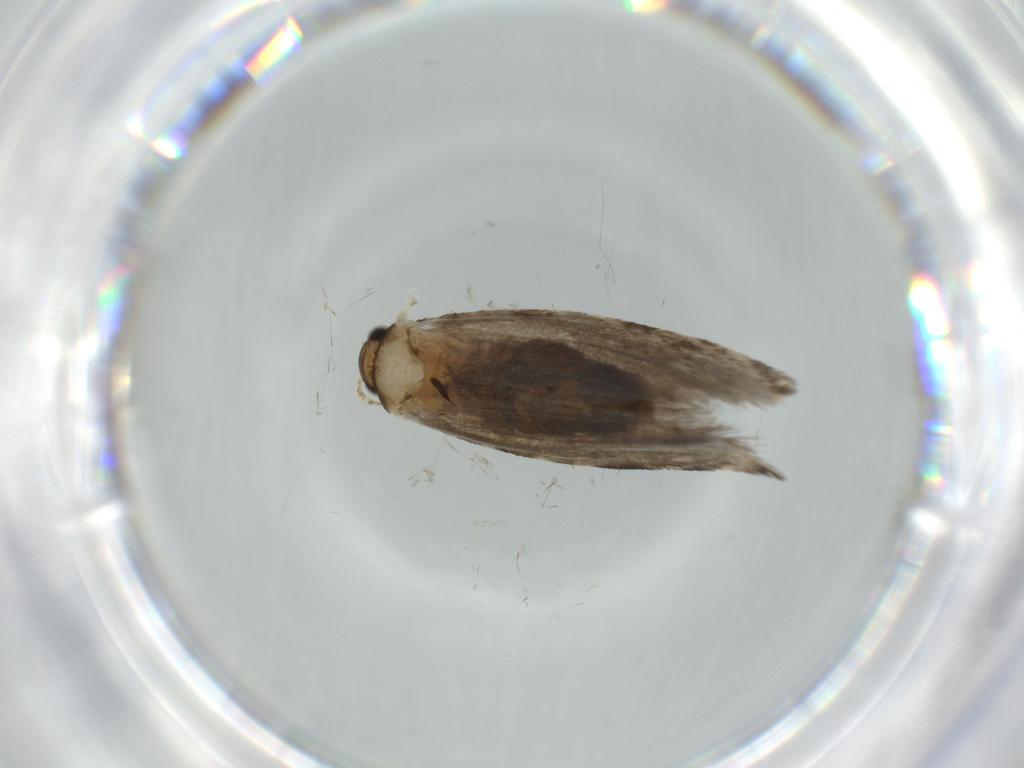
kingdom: Animalia
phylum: Arthropoda
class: Insecta
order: Lepidoptera
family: Tineidae
